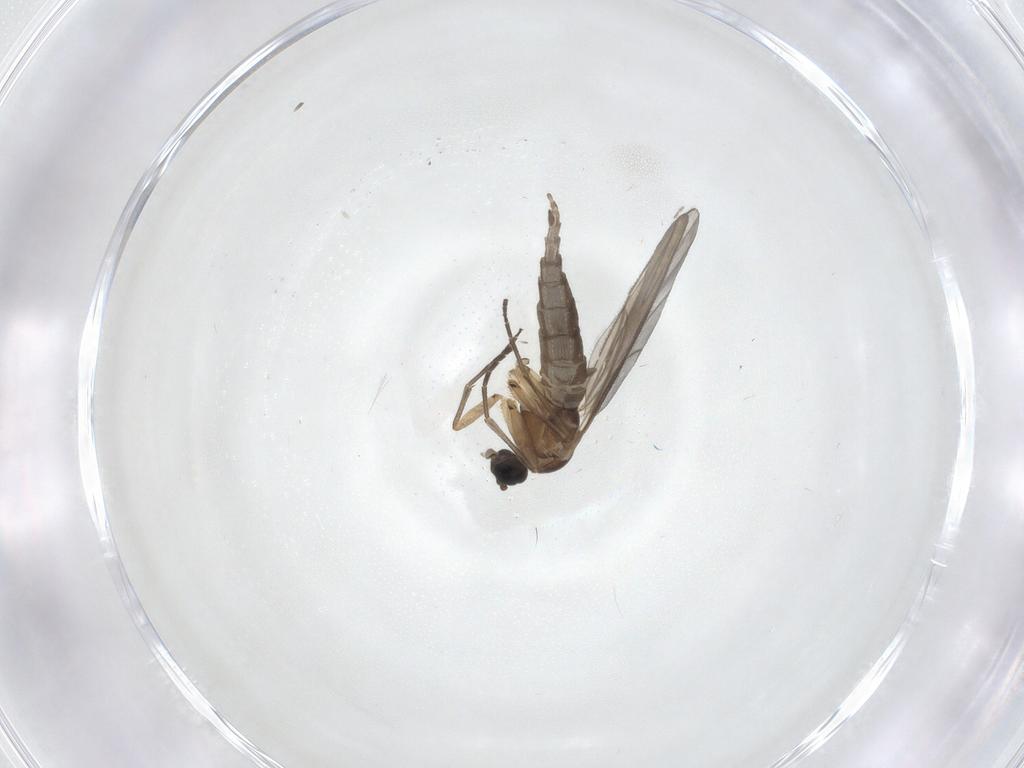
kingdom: Animalia
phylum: Arthropoda
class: Insecta
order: Diptera
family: Sciaridae
